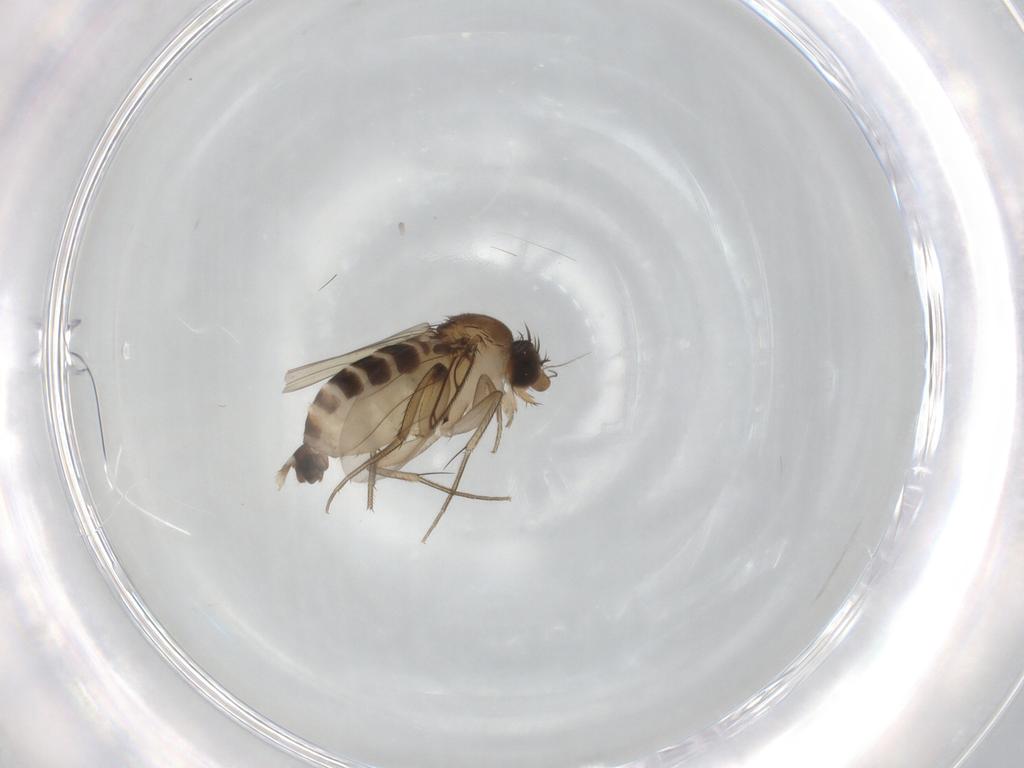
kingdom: Animalia
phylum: Arthropoda
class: Insecta
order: Diptera
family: Phoridae
